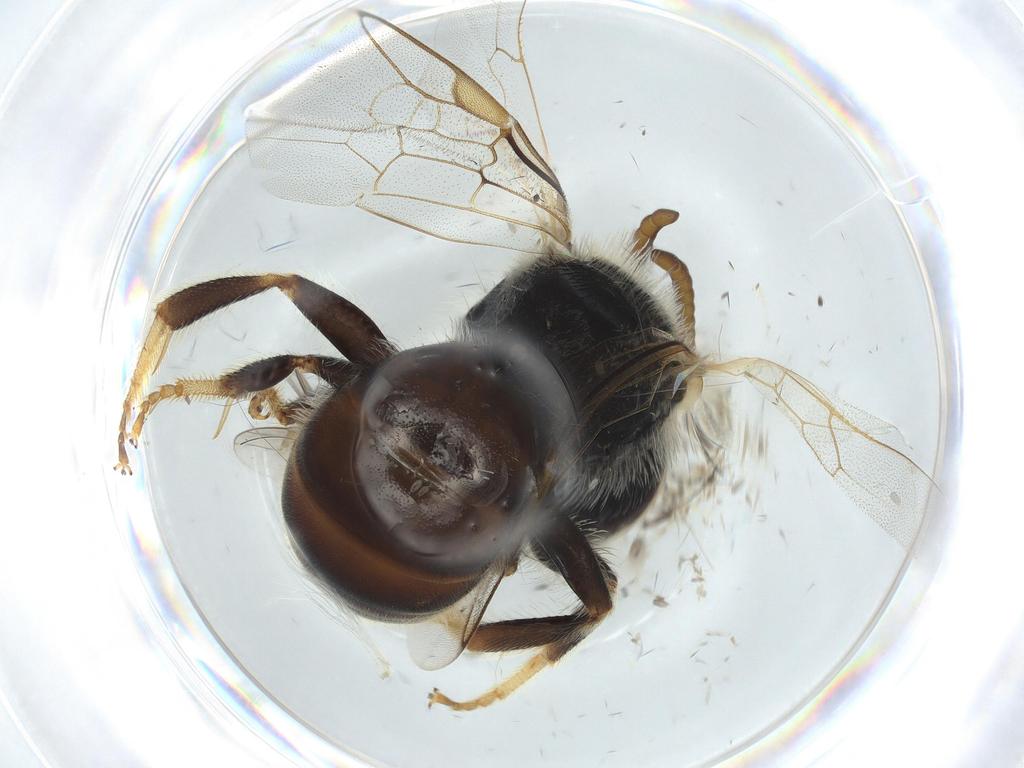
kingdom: Animalia
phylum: Arthropoda
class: Insecta
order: Hymenoptera
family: Halictidae
